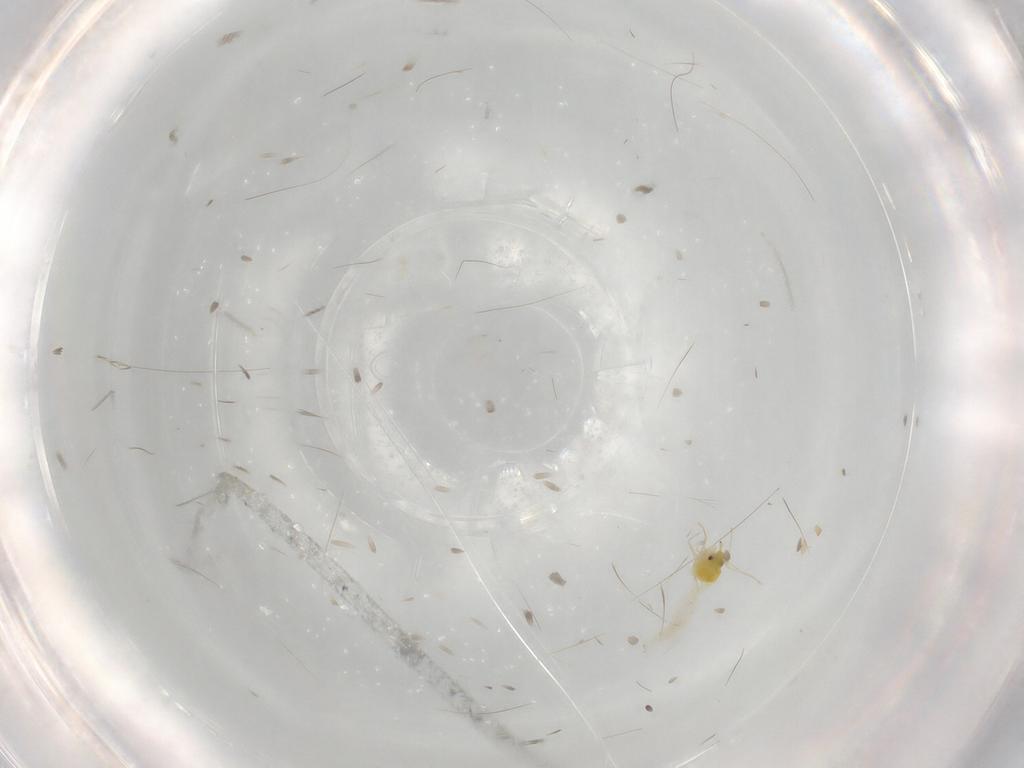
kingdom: Animalia
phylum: Arthropoda
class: Insecta
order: Hemiptera
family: Aleyrodidae
